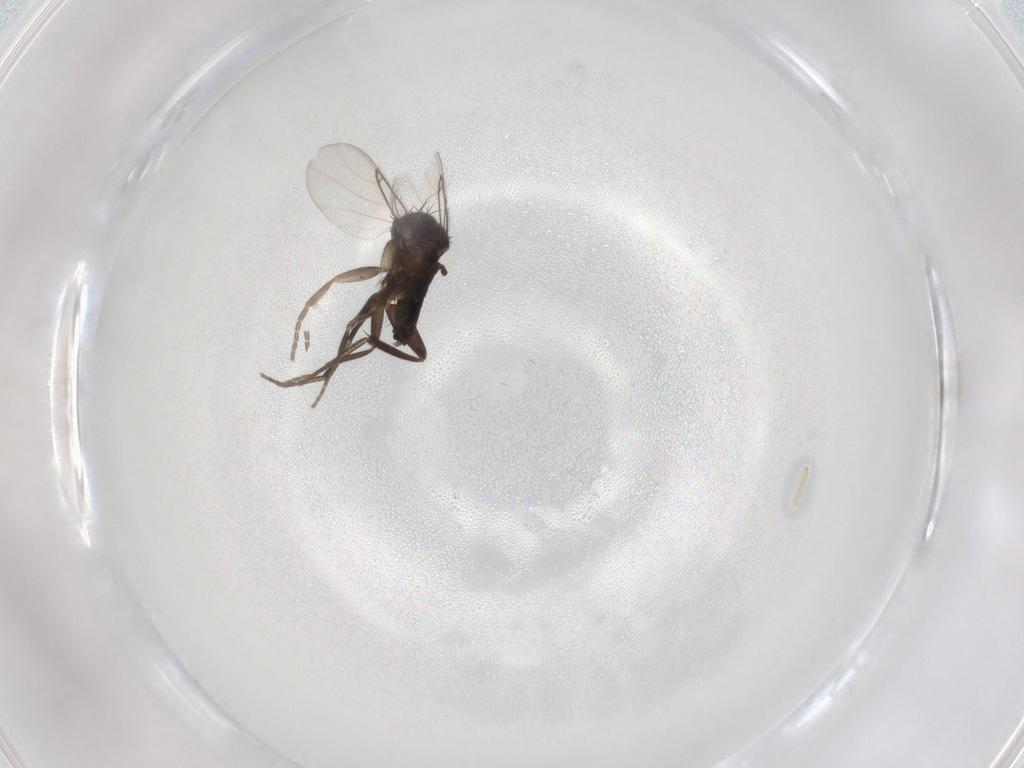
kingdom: Animalia
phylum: Arthropoda
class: Insecta
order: Diptera
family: Phoridae
